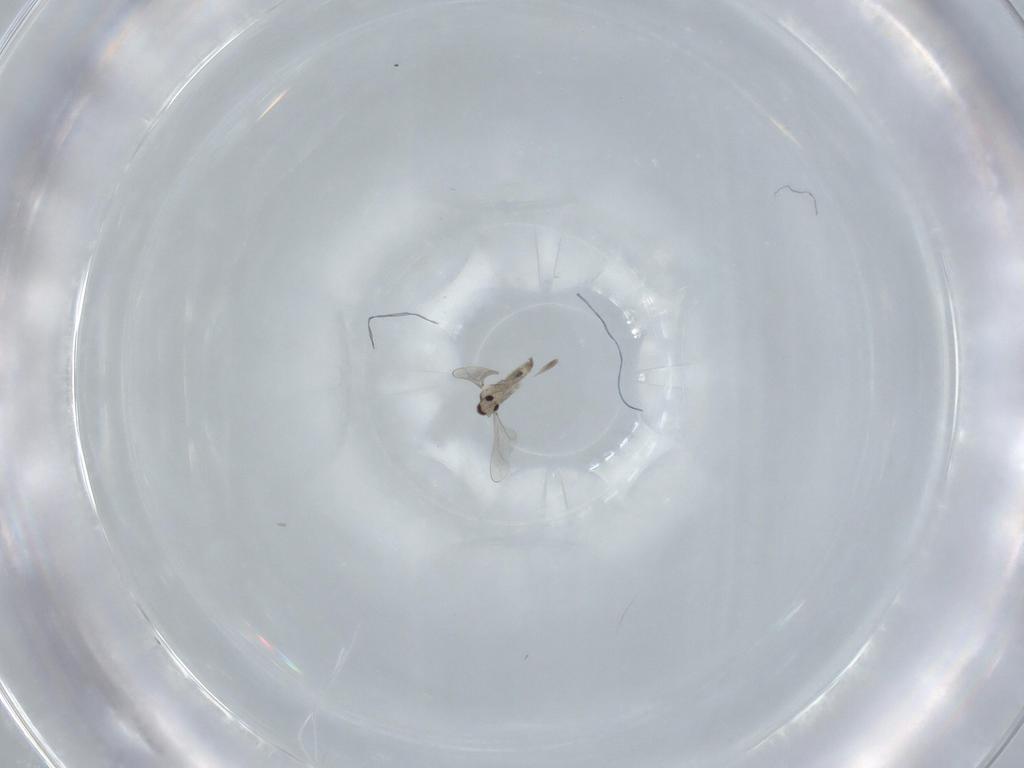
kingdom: Animalia
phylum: Arthropoda
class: Insecta
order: Diptera
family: Cecidomyiidae
